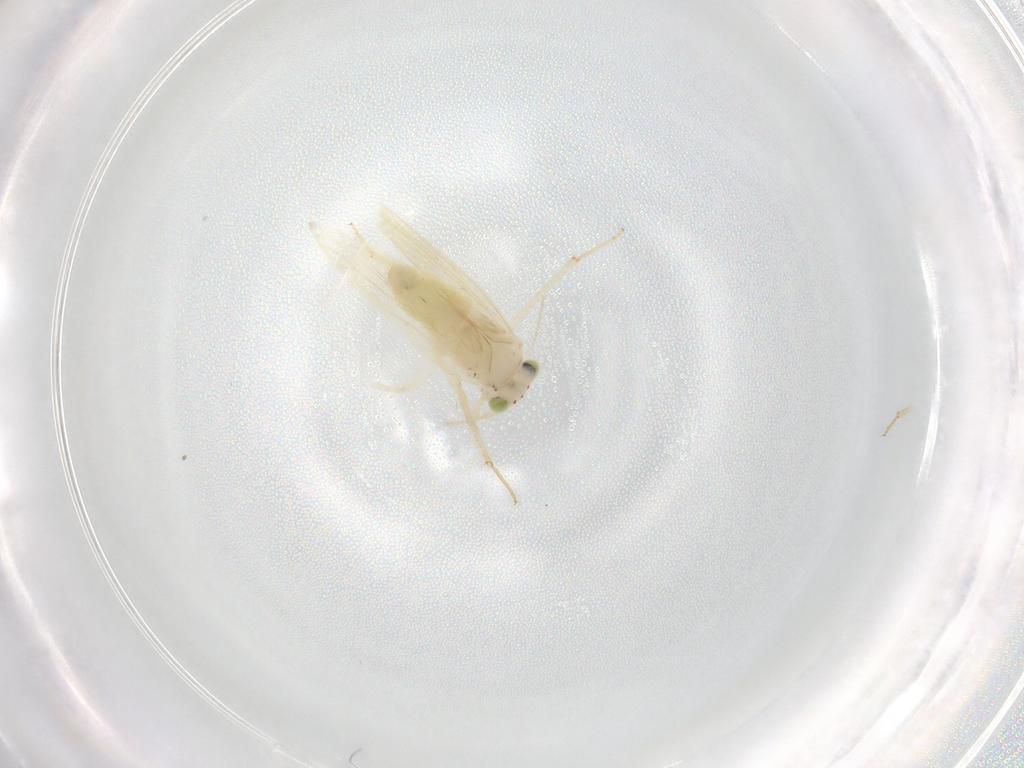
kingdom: Animalia
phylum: Arthropoda
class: Insecta
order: Psocodea
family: Lepidopsocidae
